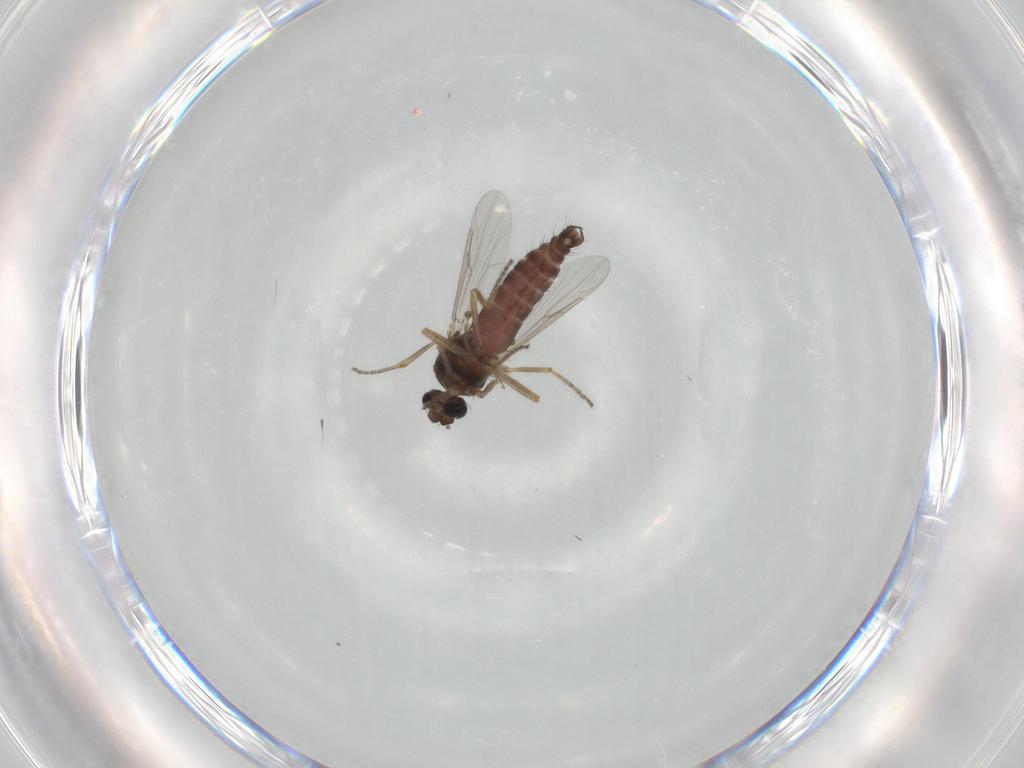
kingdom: Animalia
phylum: Arthropoda
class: Insecta
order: Diptera
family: Ceratopogonidae
